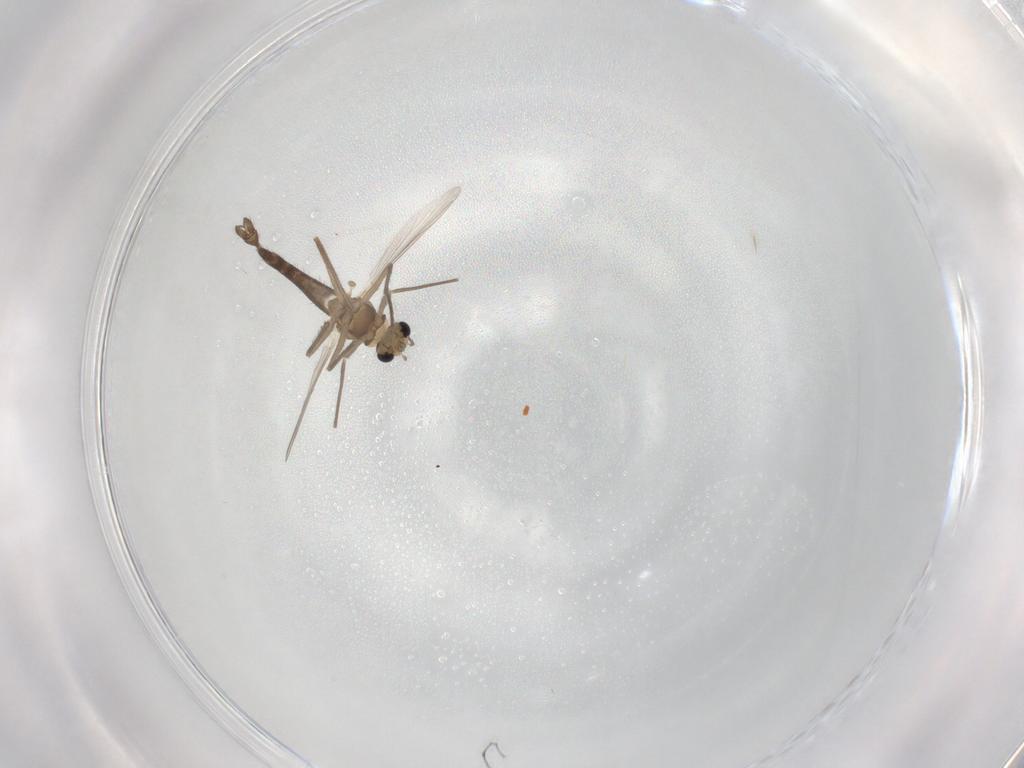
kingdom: Animalia
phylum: Arthropoda
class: Insecta
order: Diptera
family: Chironomidae
